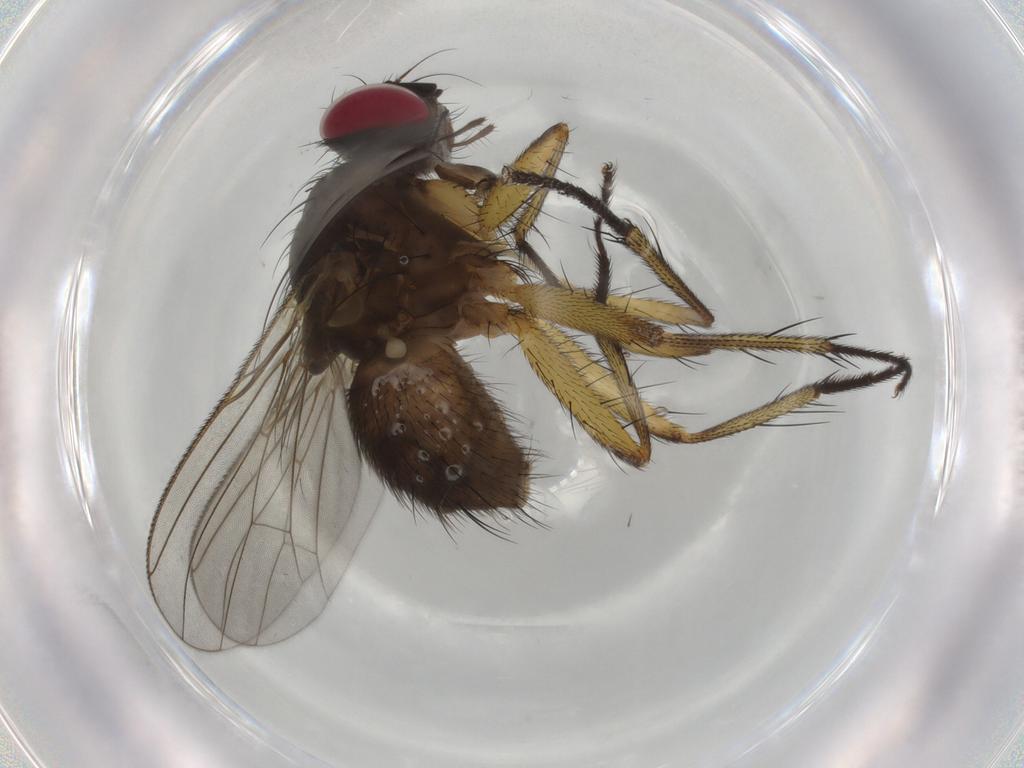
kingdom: Animalia
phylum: Arthropoda
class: Insecta
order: Diptera
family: Muscidae
